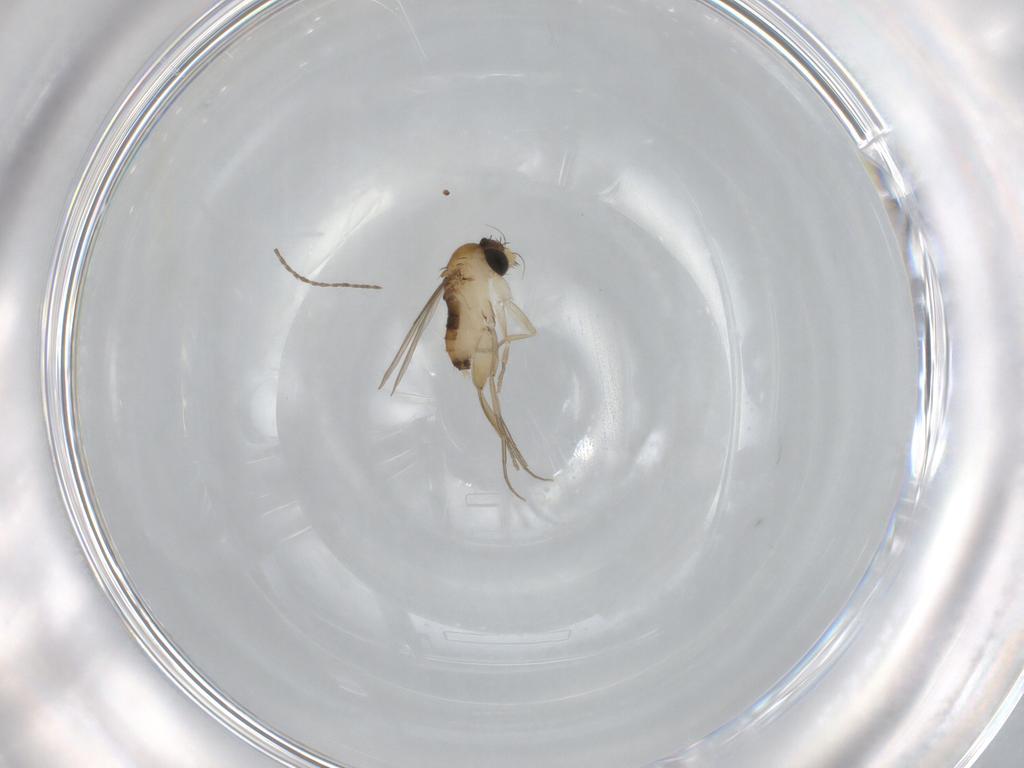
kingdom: Animalia
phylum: Arthropoda
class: Insecta
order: Diptera
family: Phoridae
